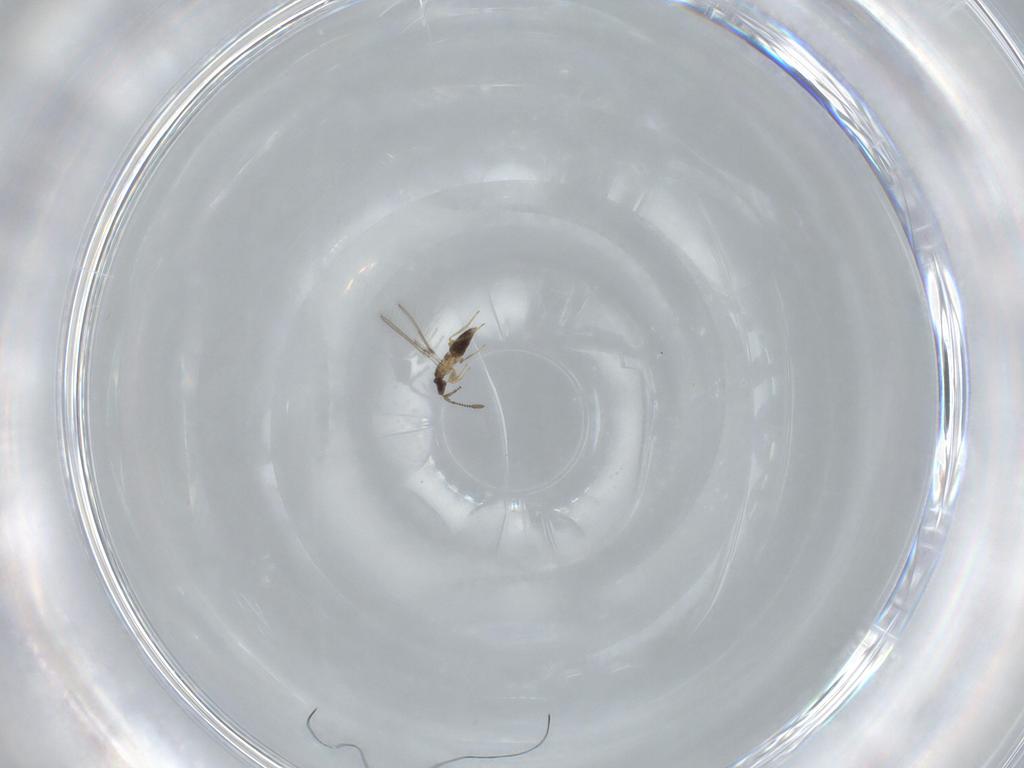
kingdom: Animalia
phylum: Arthropoda
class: Insecta
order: Hymenoptera
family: Mymaridae
